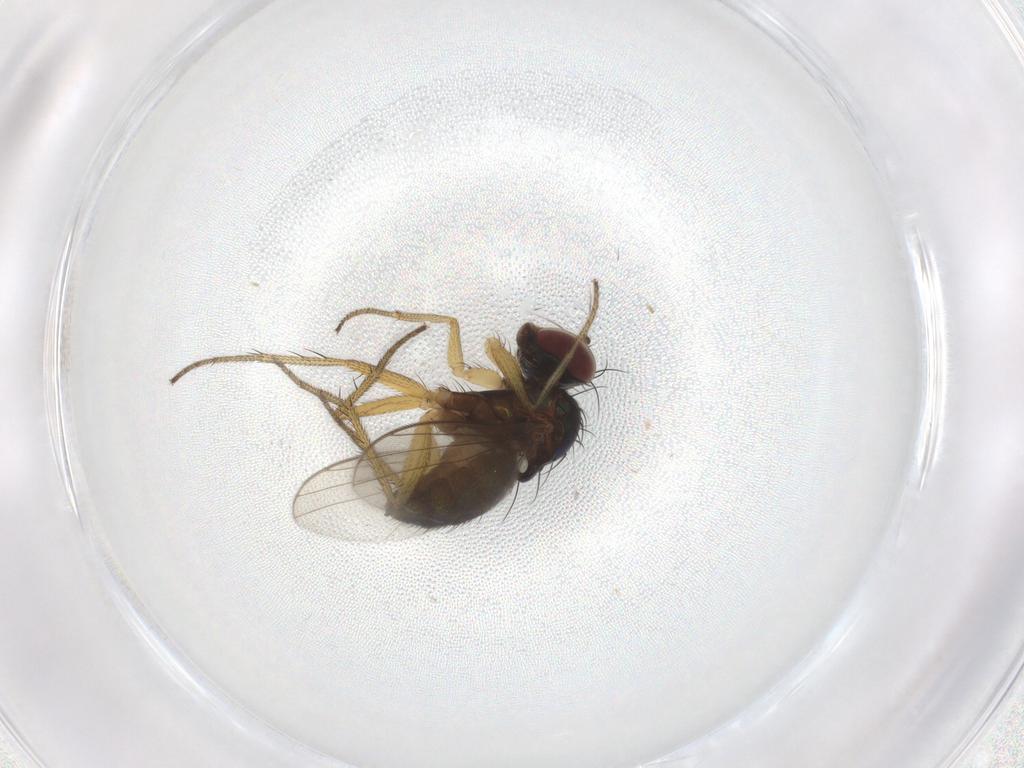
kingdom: Animalia
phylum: Arthropoda
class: Insecta
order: Diptera
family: Dolichopodidae
